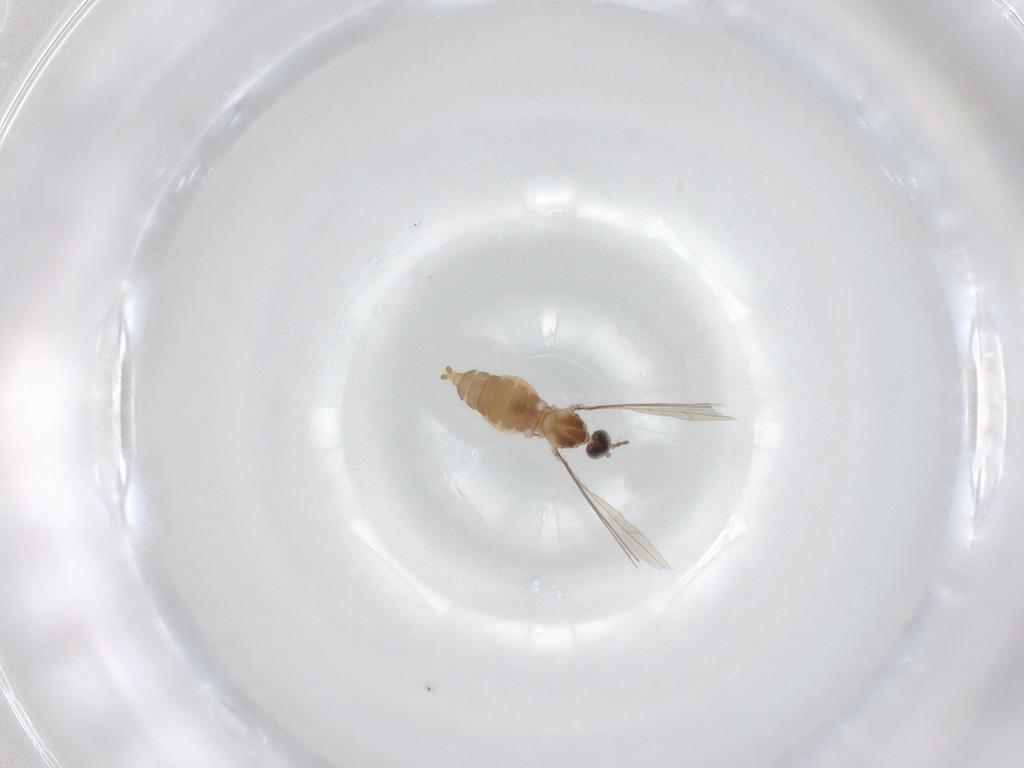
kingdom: Animalia
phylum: Arthropoda
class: Insecta
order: Diptera
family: Cecidomyiidae
